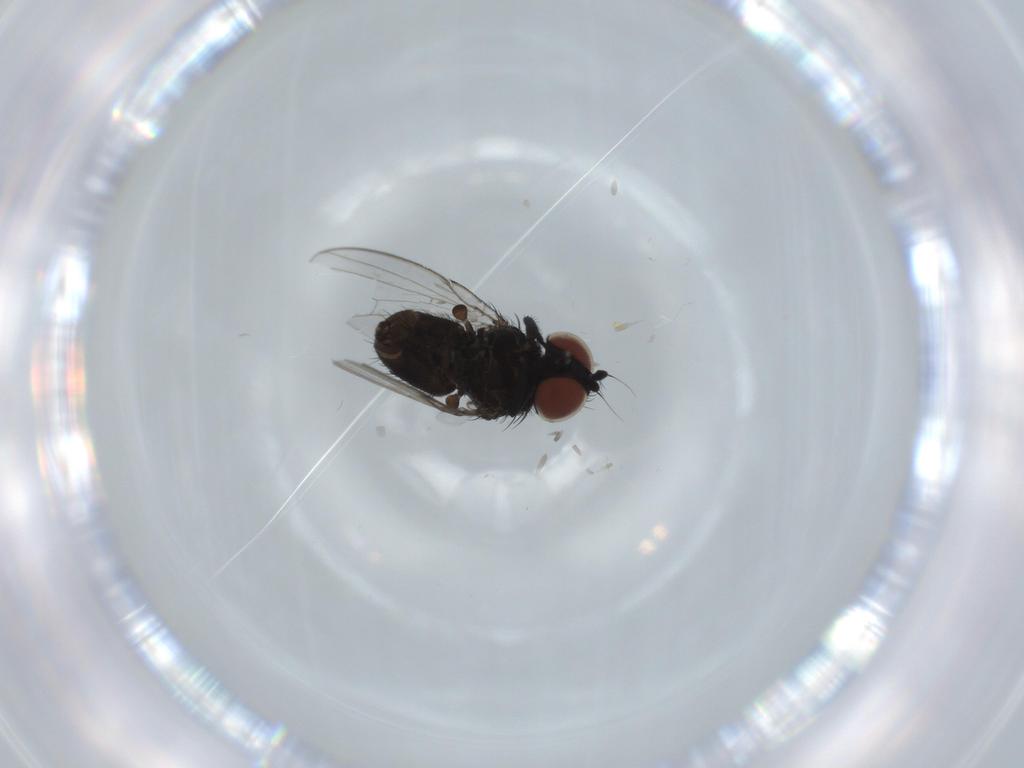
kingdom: Animalia
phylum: Arthropoda
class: Insecta
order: Diptera
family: Milichiidae
